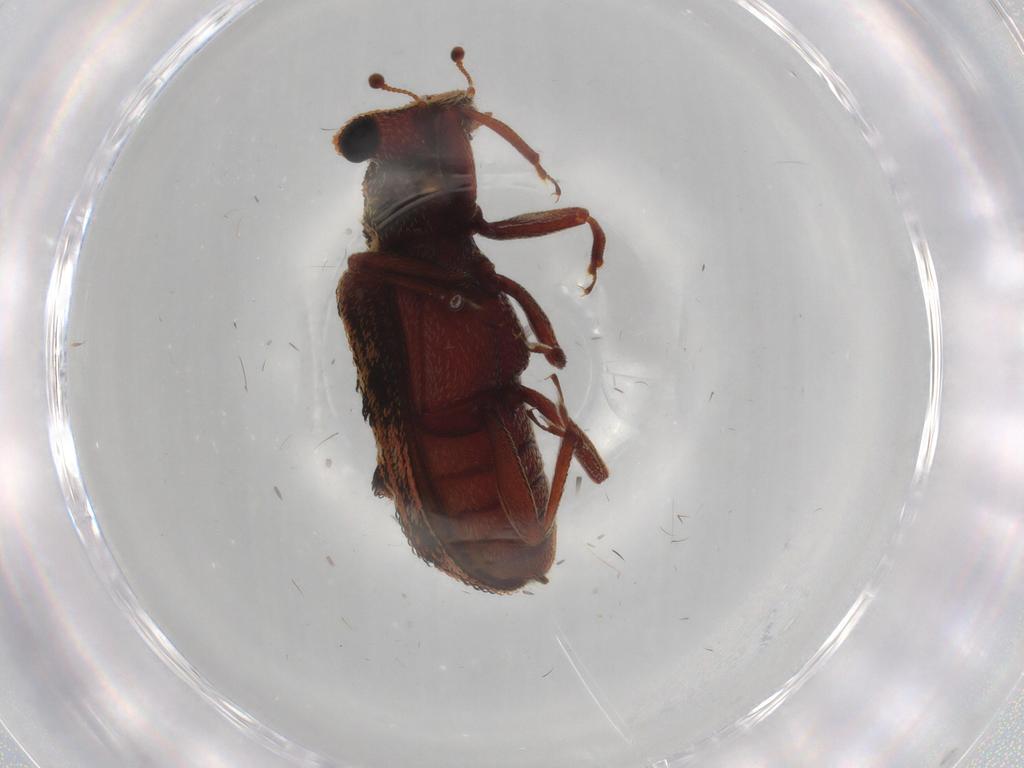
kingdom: Animalia
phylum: Arthropoda
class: Insecta
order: Coleoptera
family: Zopheridae
